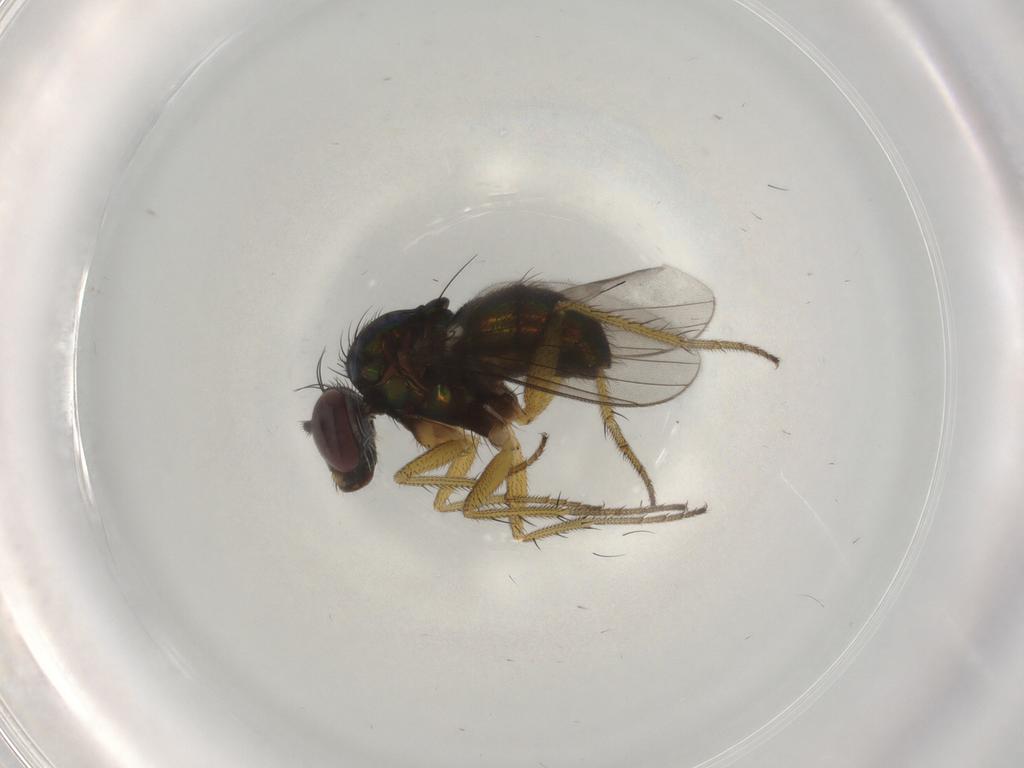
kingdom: Animalia
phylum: Arthropoda
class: Insecta
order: Diptera
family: Dolichopodidae
